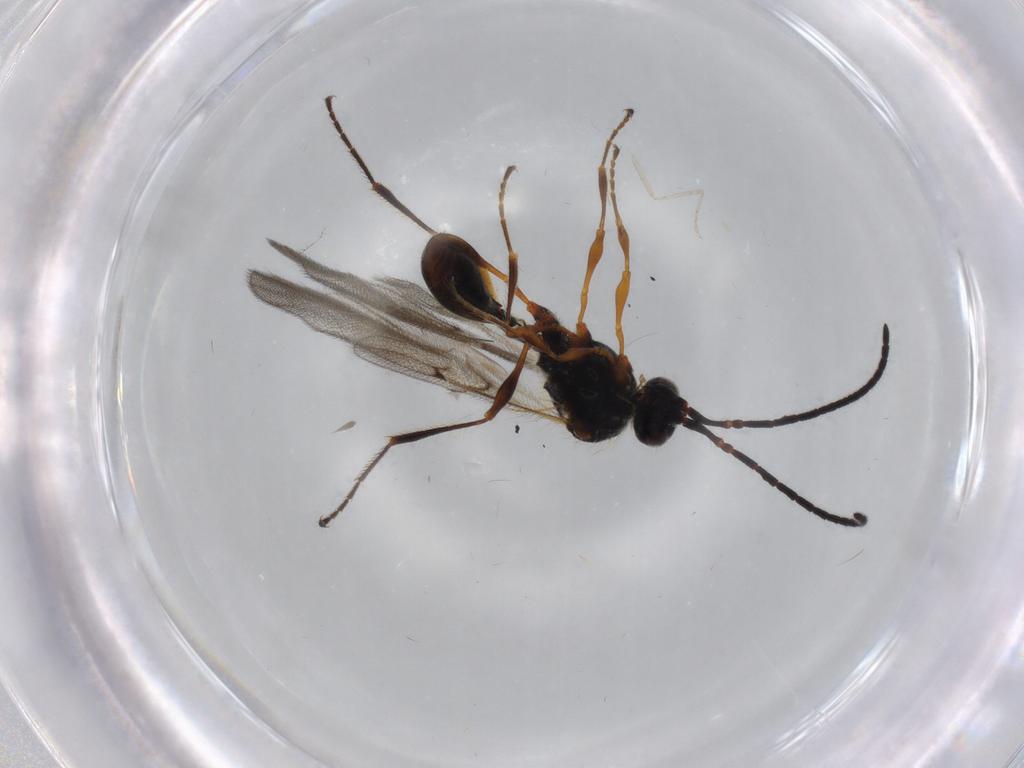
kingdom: Animalia
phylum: Arthropoda
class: Insecta
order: Hymenoptera
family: Diapriidae
